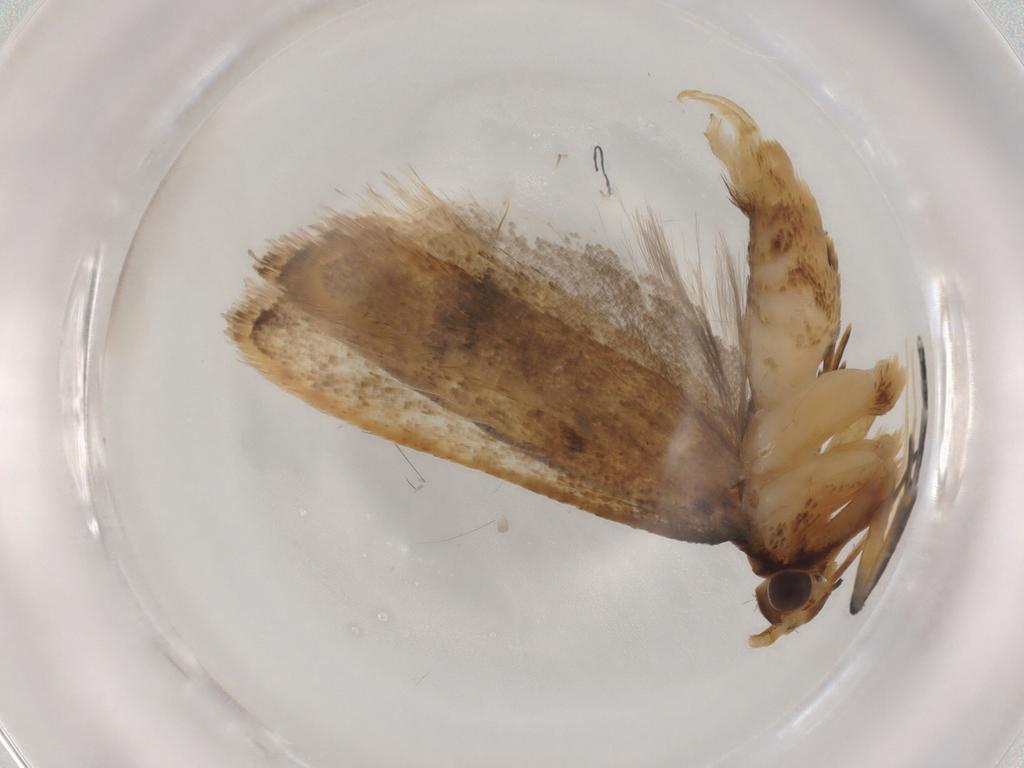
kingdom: Animalia
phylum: Arthropoda
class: Insecta
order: Lepidoptera
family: Lecithoceridae
